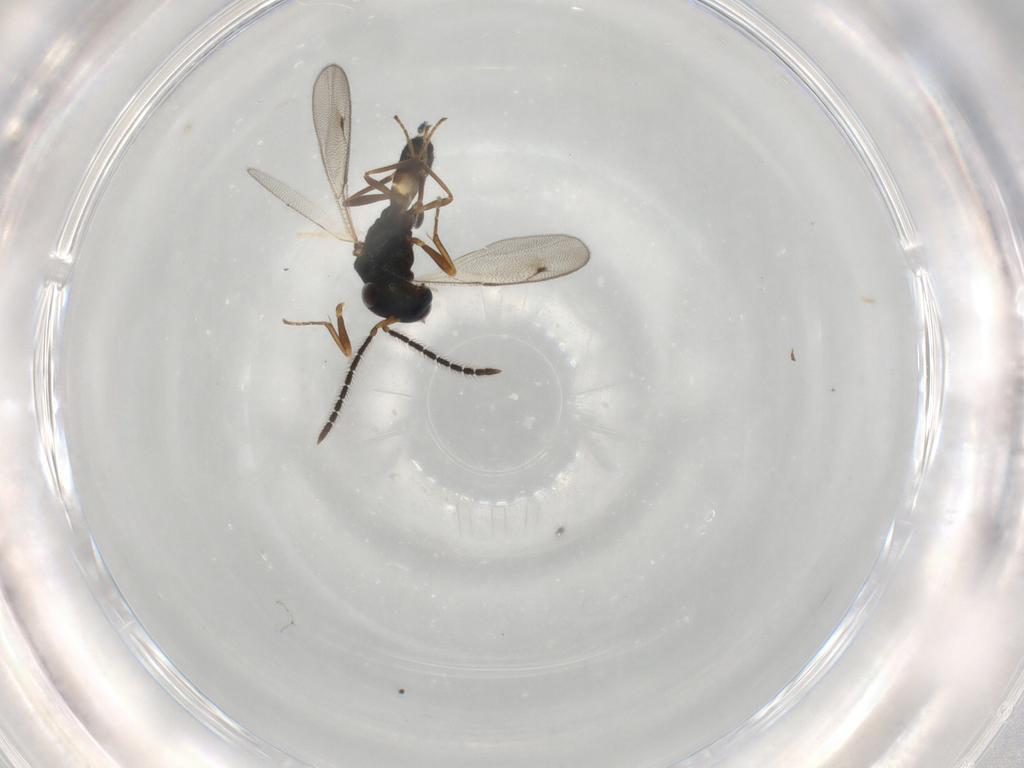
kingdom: Animalia
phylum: Arthropoda
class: Insecta
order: Hymenoptera
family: Pteromalidae
